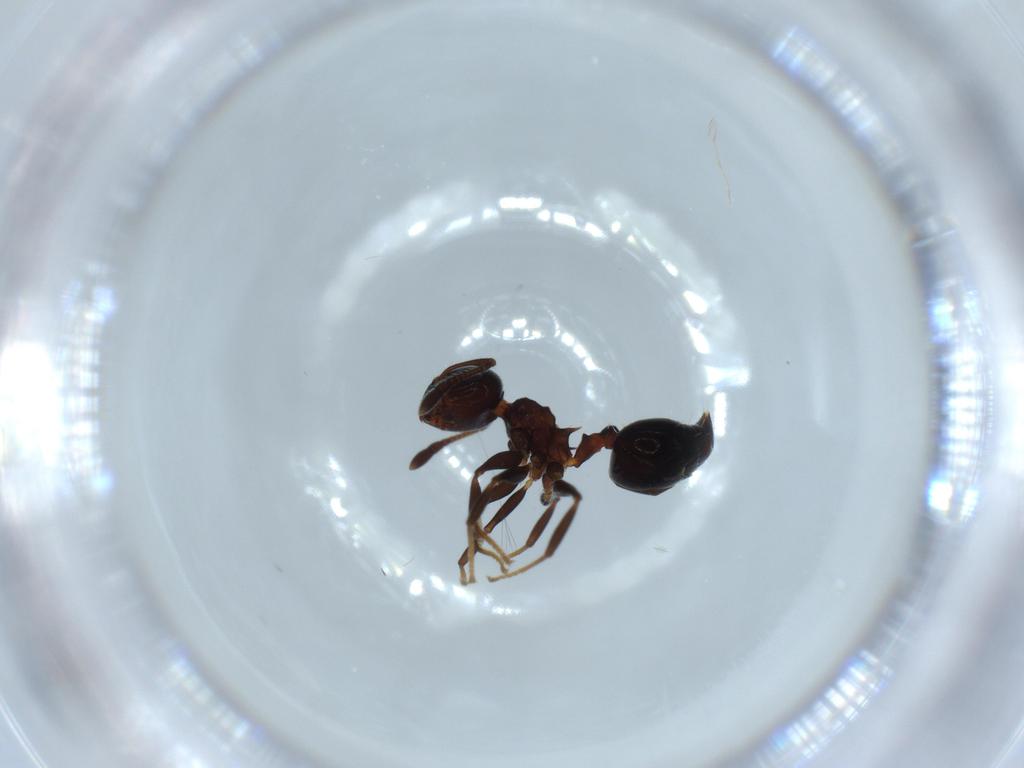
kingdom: Animalia
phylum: Arthropoda
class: Insecta
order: Hymenoptera
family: Formicidae
